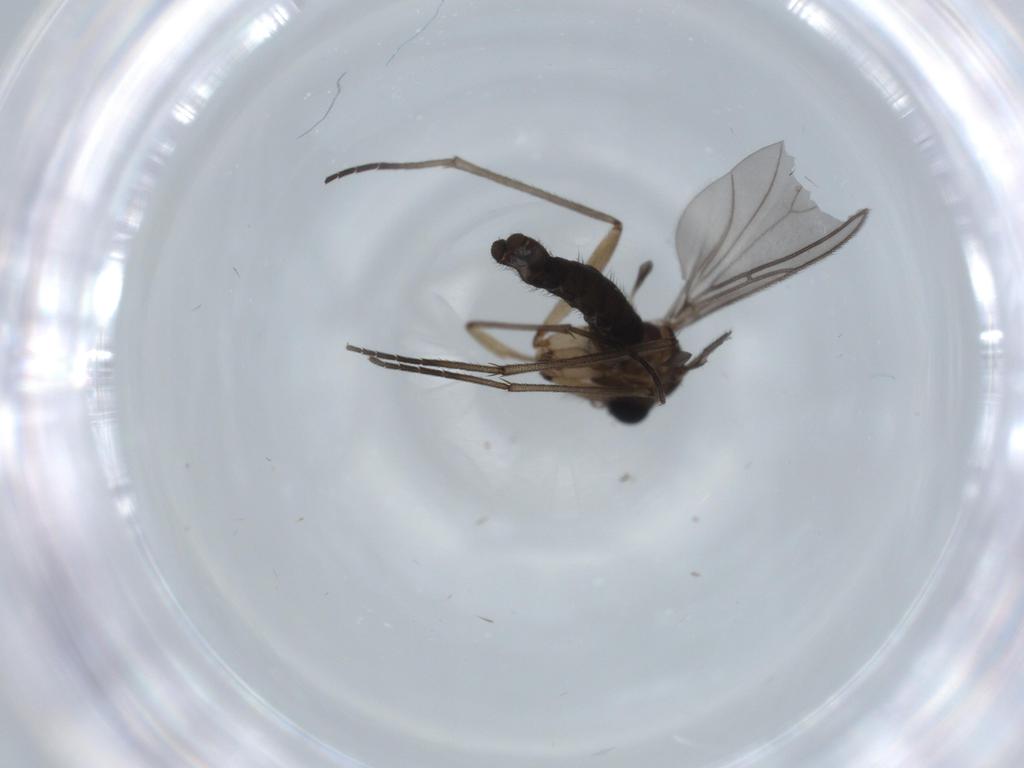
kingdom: Animalia
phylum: Arthropoda
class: Insecta
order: Diptera
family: Sciaridae
